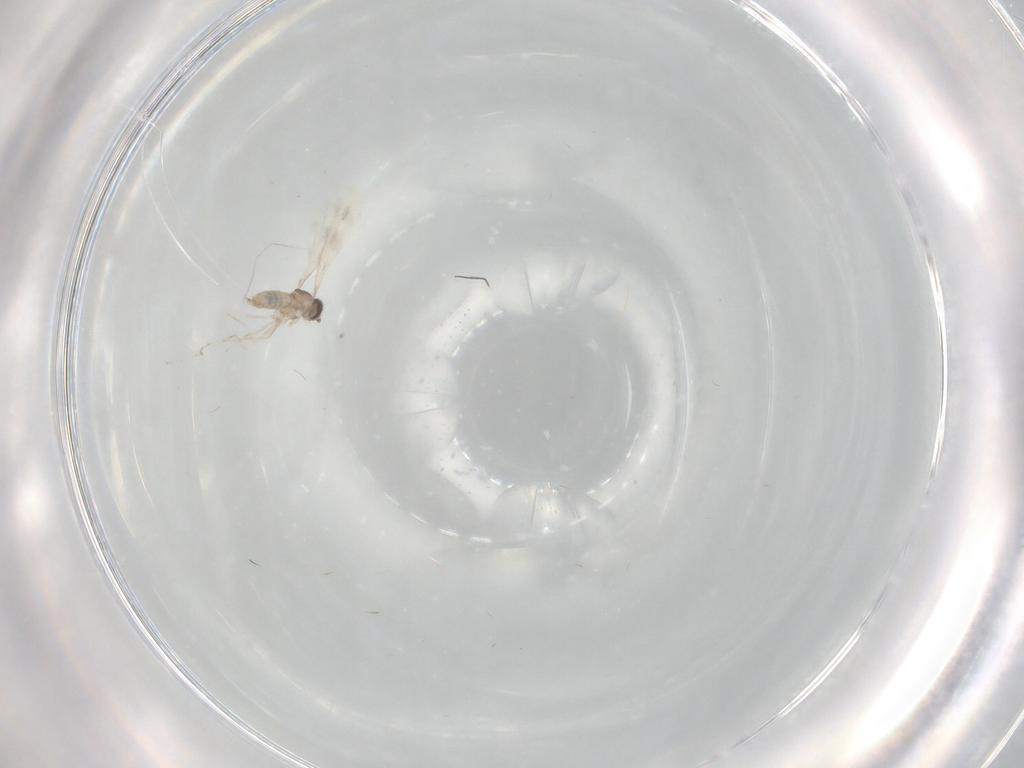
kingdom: Animalia
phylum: Arthropoda
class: Insecta
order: Diptera
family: Cecidomyiidae
